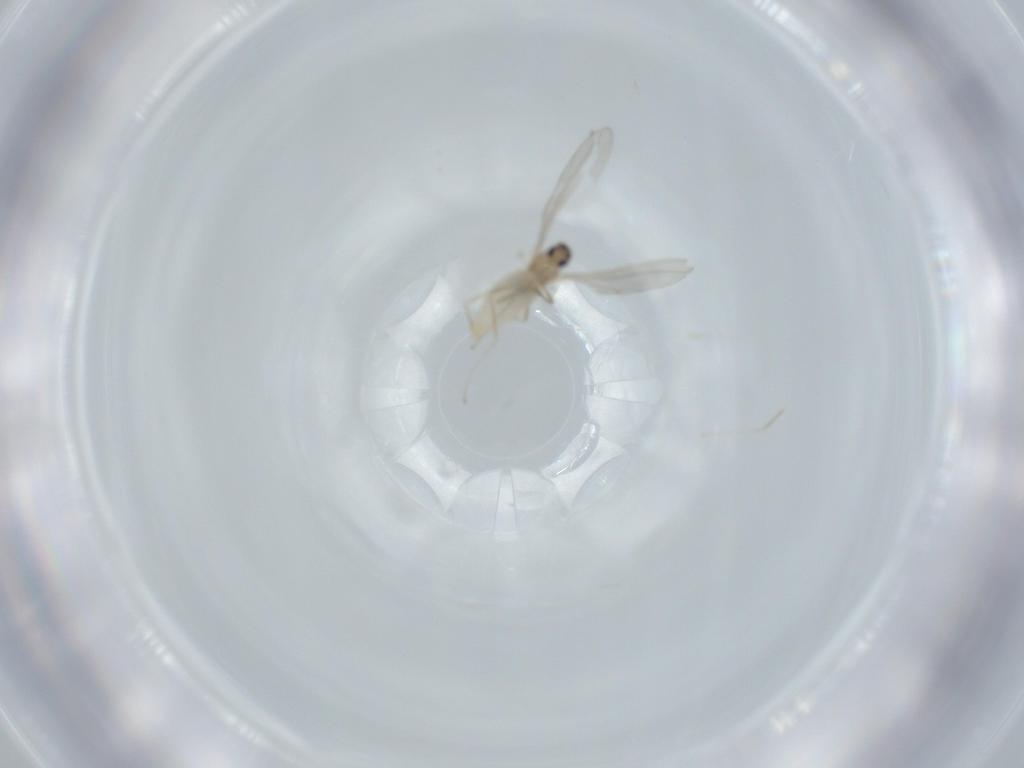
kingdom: Animalia
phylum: Arthropoda
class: Insecta
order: Diptera
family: Cecidomyiidae
